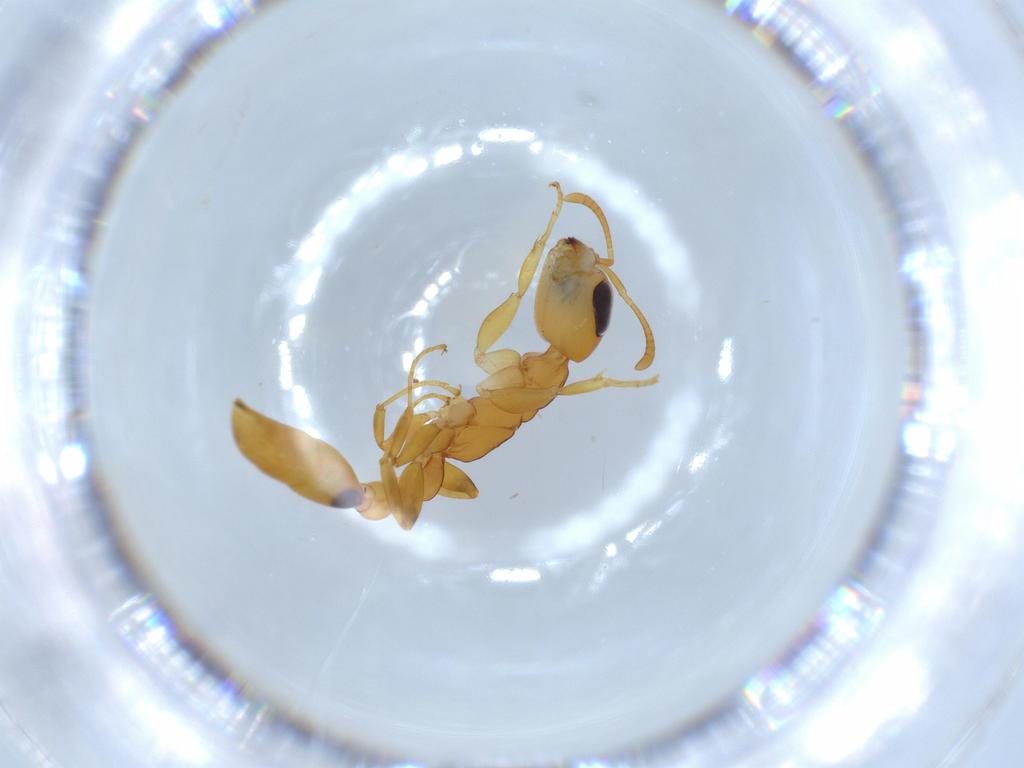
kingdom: Animalia
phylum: Arthropoda
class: Insecta
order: Hymenoptera
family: Formicidae
